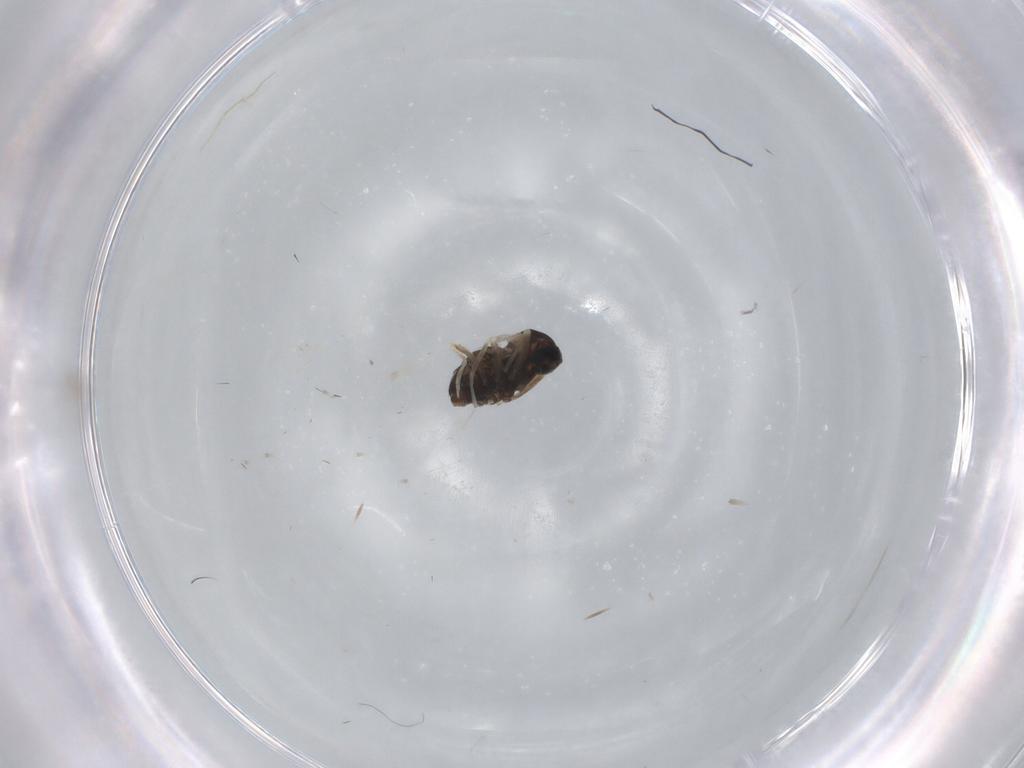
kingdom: Animalia
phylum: Arthropoda
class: Insecta
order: Diptera
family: Cecidomyiidae
